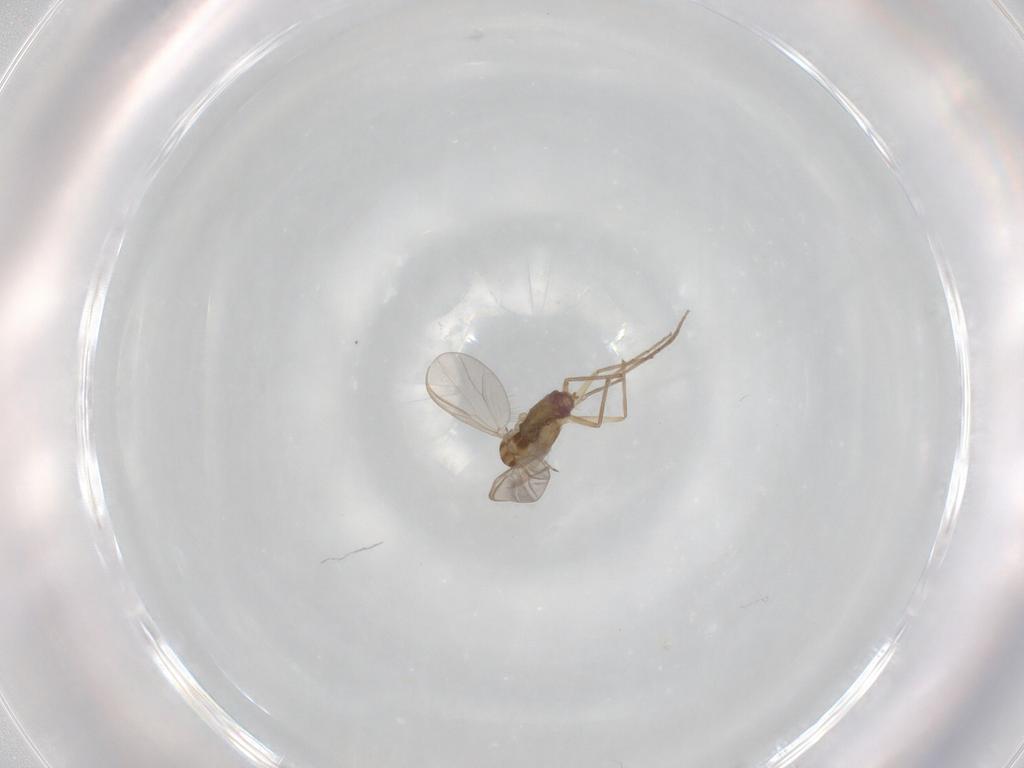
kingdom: Animalia
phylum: Arthropoda
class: Insecta
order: Diptera
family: Chironomidae
